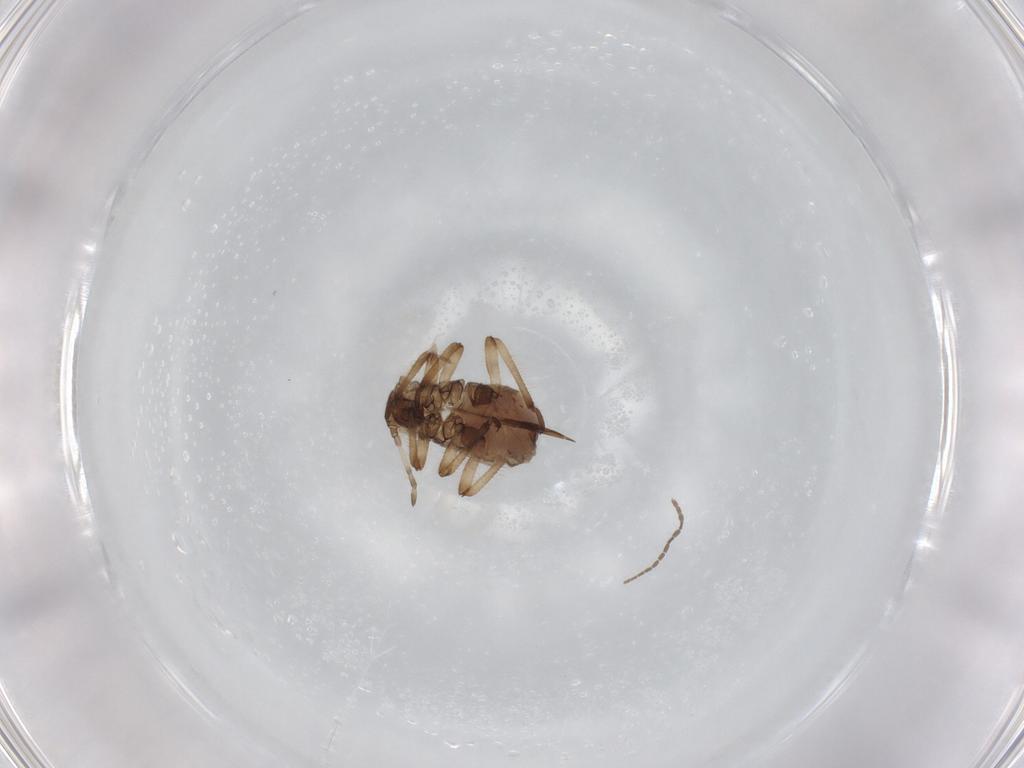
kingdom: Animalia
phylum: Arthropoda
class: Insecta
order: Hemiptera
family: Aphididae
